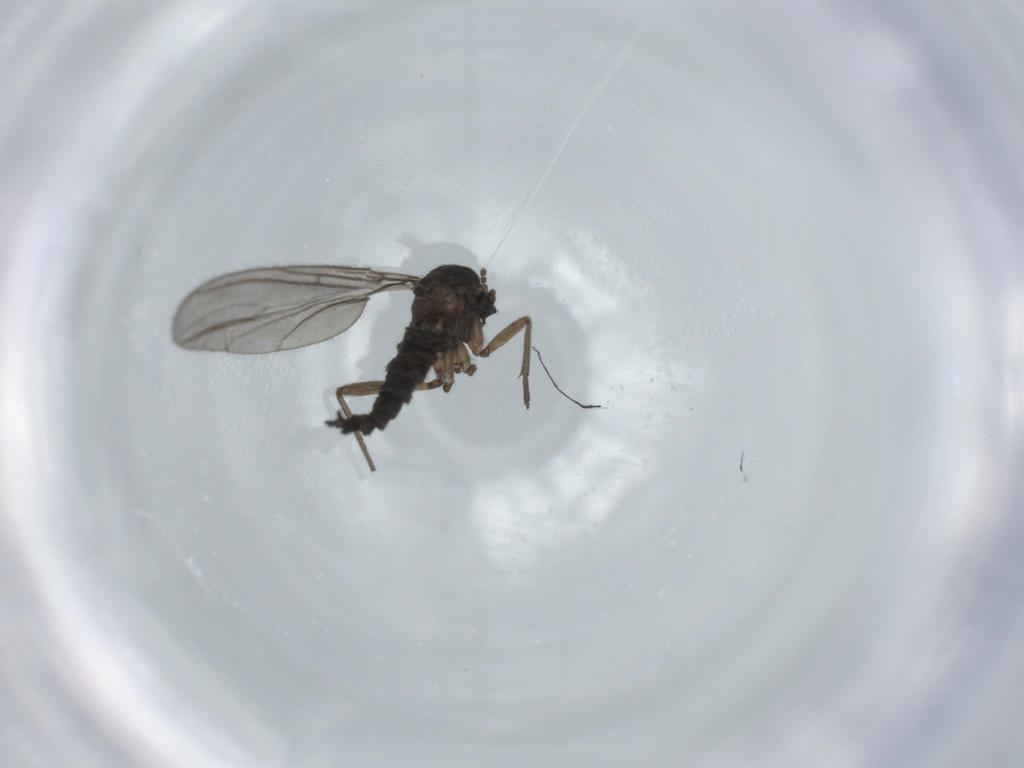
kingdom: Animalia
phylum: Arthropoda
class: Insecta
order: Diptera
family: Sciaridae
